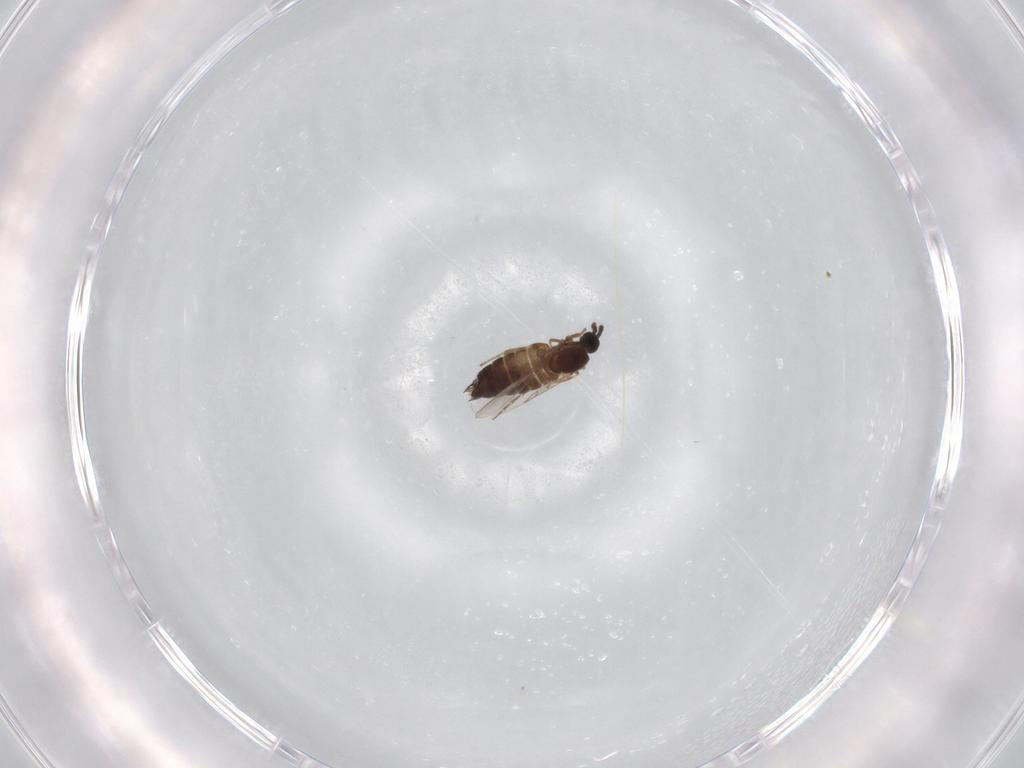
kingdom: Animalia
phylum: Arthropoda
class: Insecta
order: Diptera
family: Scatopsidae
